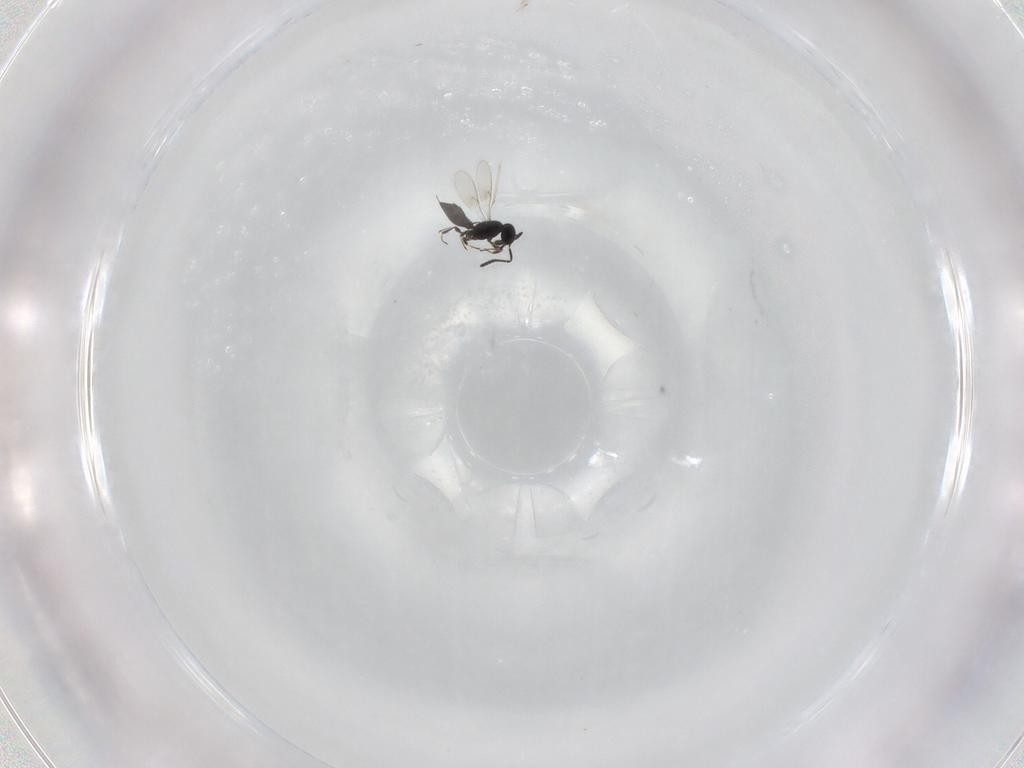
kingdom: Animalia
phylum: Arthropoda
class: Insecta
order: Hymenoptera
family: Scelionidae
